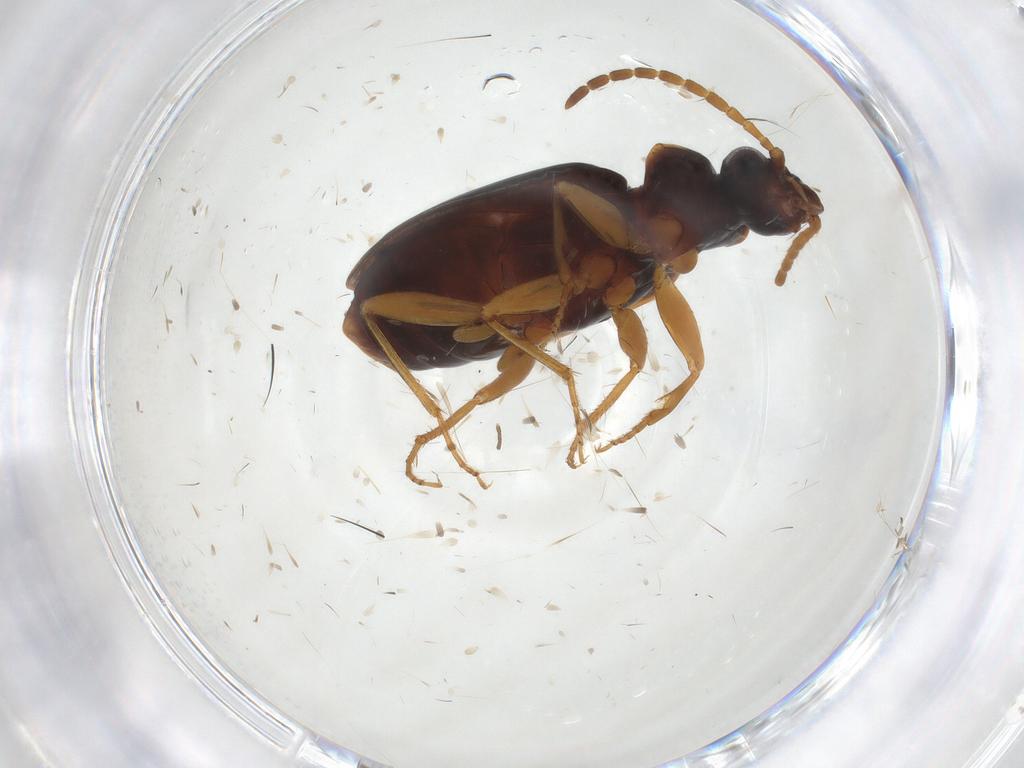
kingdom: Animalia
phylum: Arthropoda
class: Insecta
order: Coleoptera
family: Carabidae
